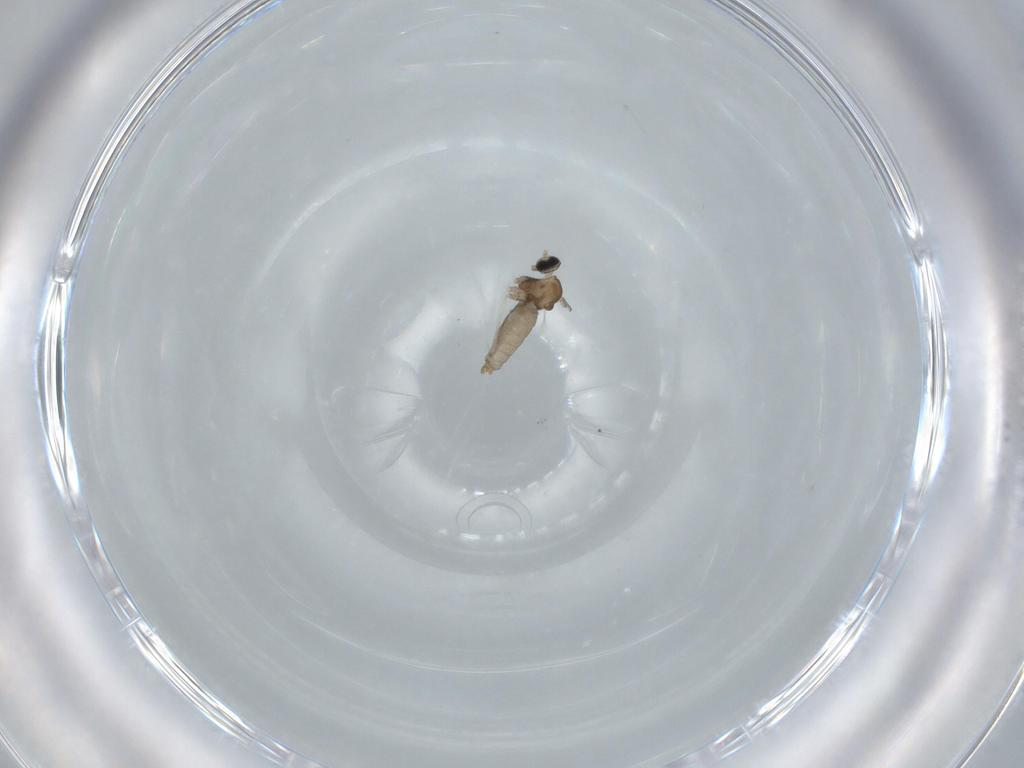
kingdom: Animalia
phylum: Arthropoda
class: Insecta
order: Diptera
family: Cecidomyiidae
